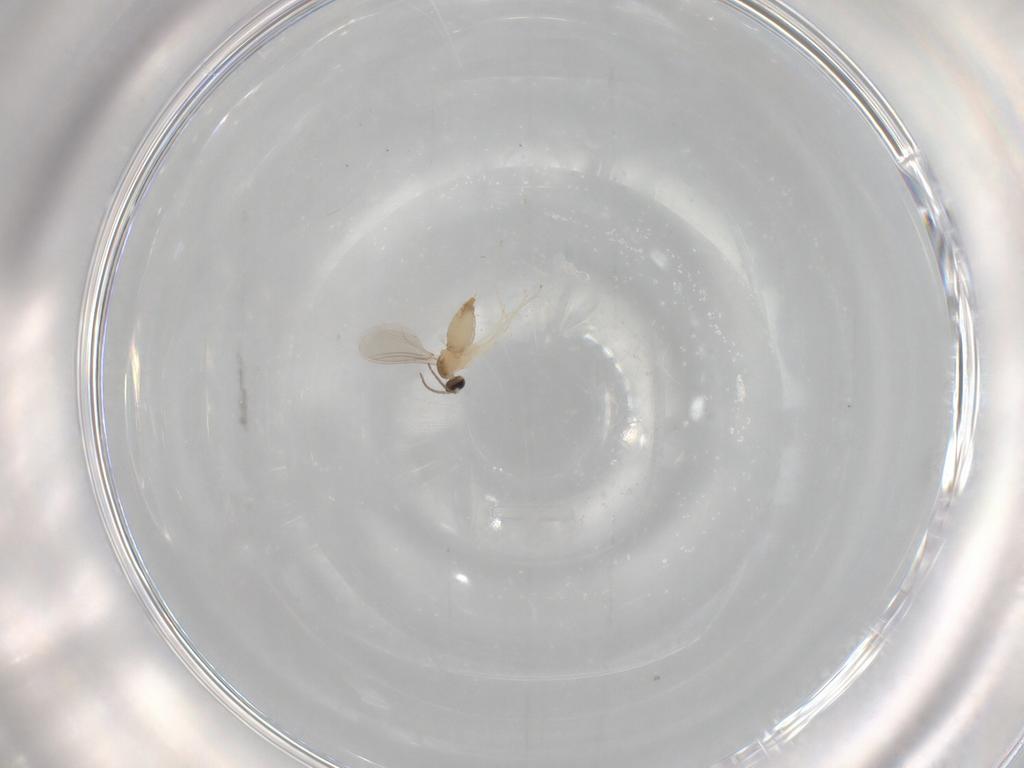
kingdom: Animalia
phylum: Arthropoda
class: Insecta
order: Diptera
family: Cecidomyiidae
